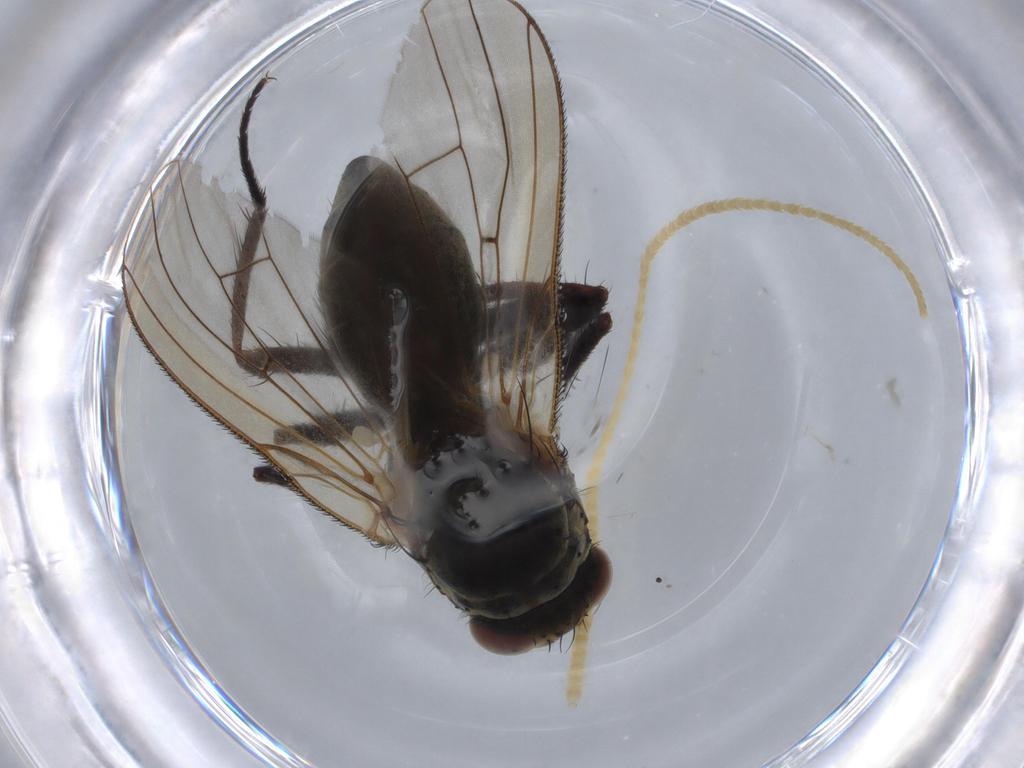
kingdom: Animalia
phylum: Arthropoda
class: Insecta
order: Diptera
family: Anthomyiidae
